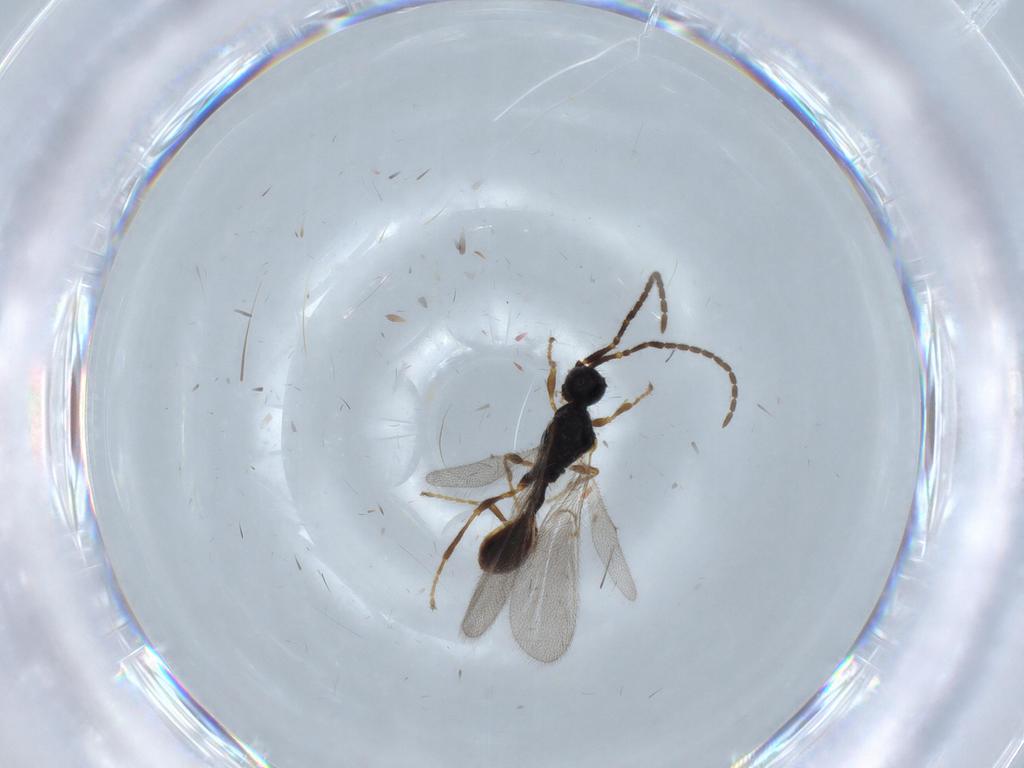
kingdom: Animalia
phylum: Arthropoda
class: Insecta
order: Hymenoptera
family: Diapriidae
